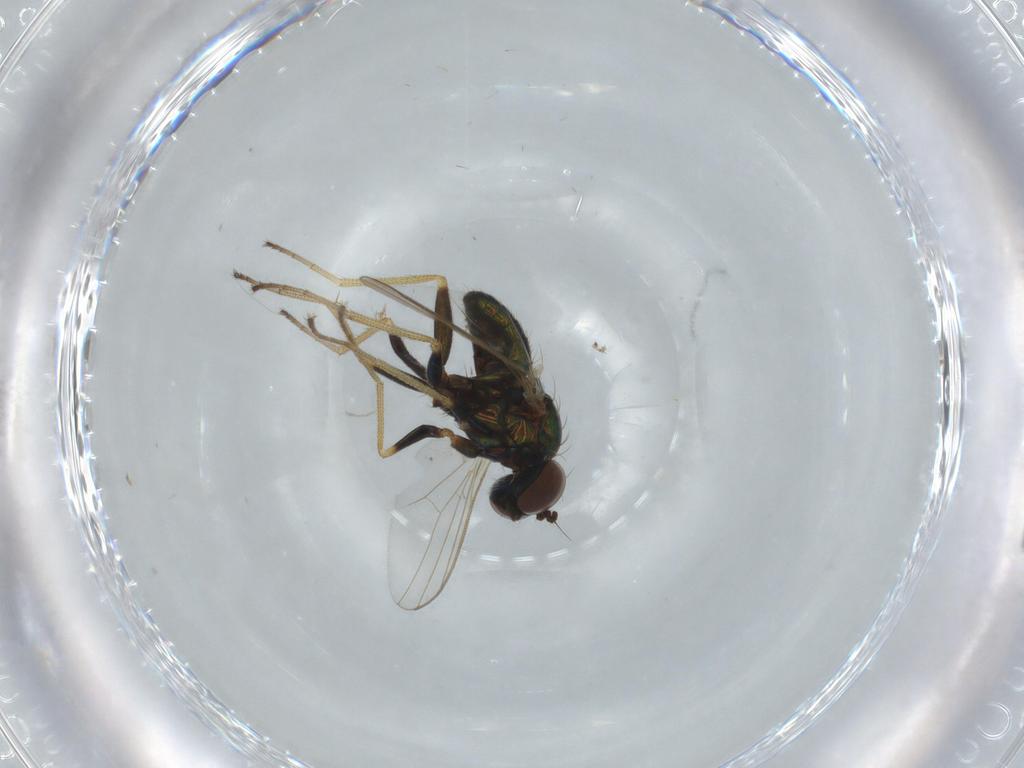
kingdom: Animalia
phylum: Arthropoda
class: Insecta
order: Diptera
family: Dolichopodidae
